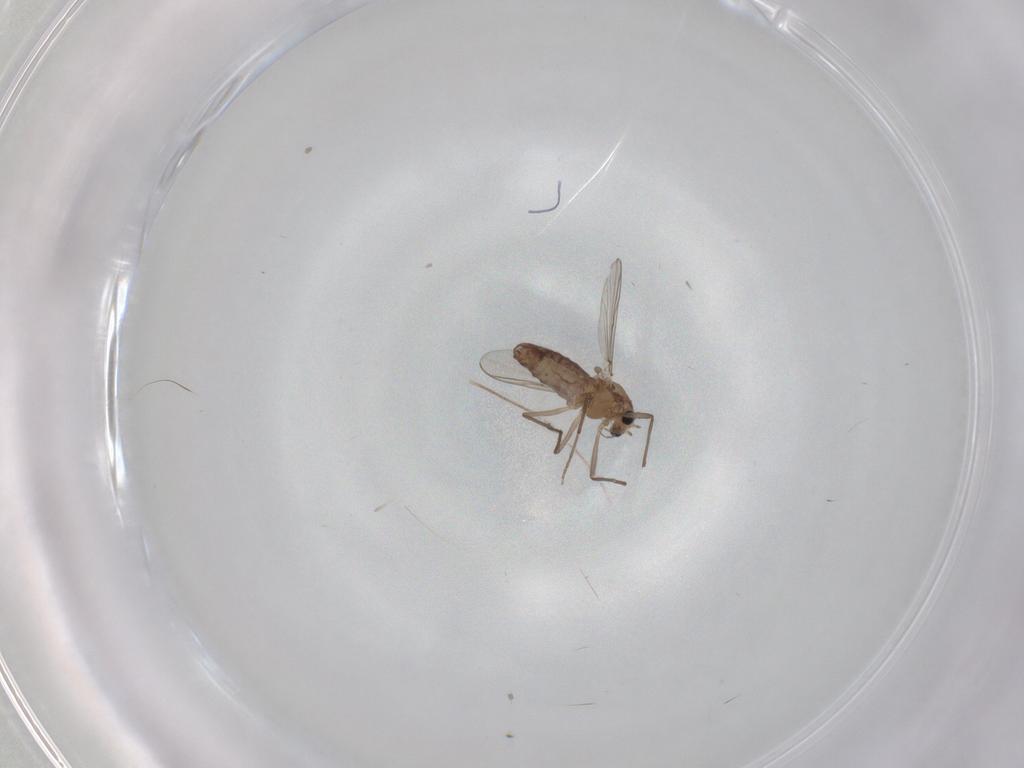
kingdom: Animalia
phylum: Arthropoda
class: Insecta
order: Diptera
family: Chironomidae
